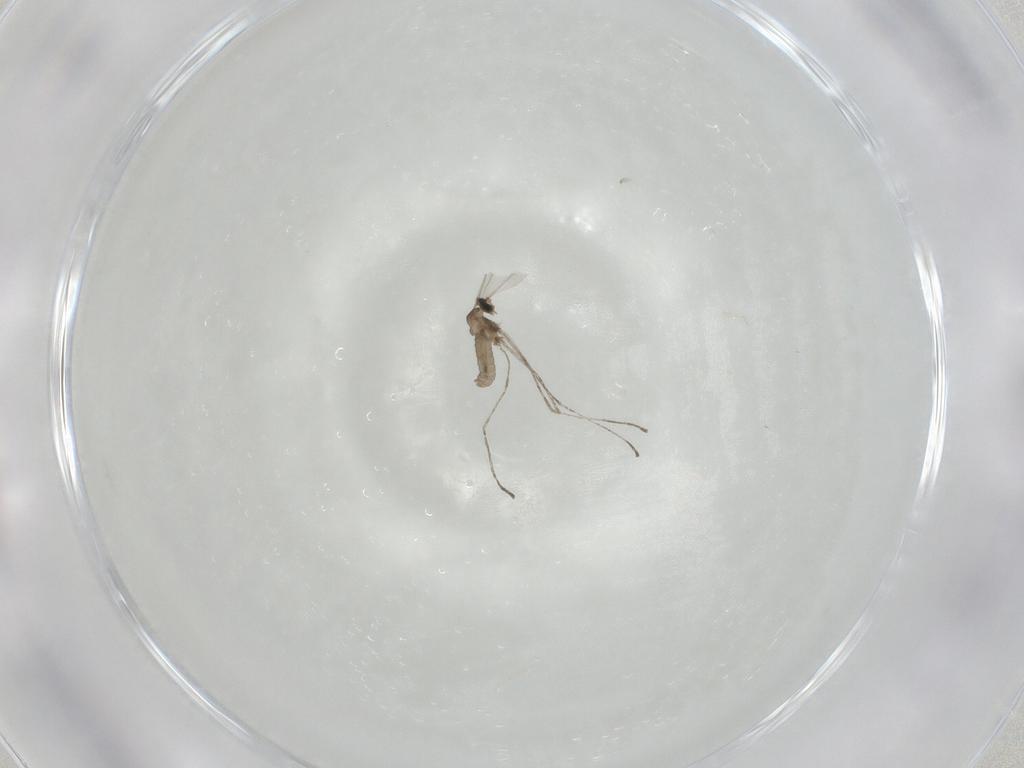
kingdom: Animalia
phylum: Arthropoda
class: Insecta
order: Diptera
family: Cecidomyiidae
